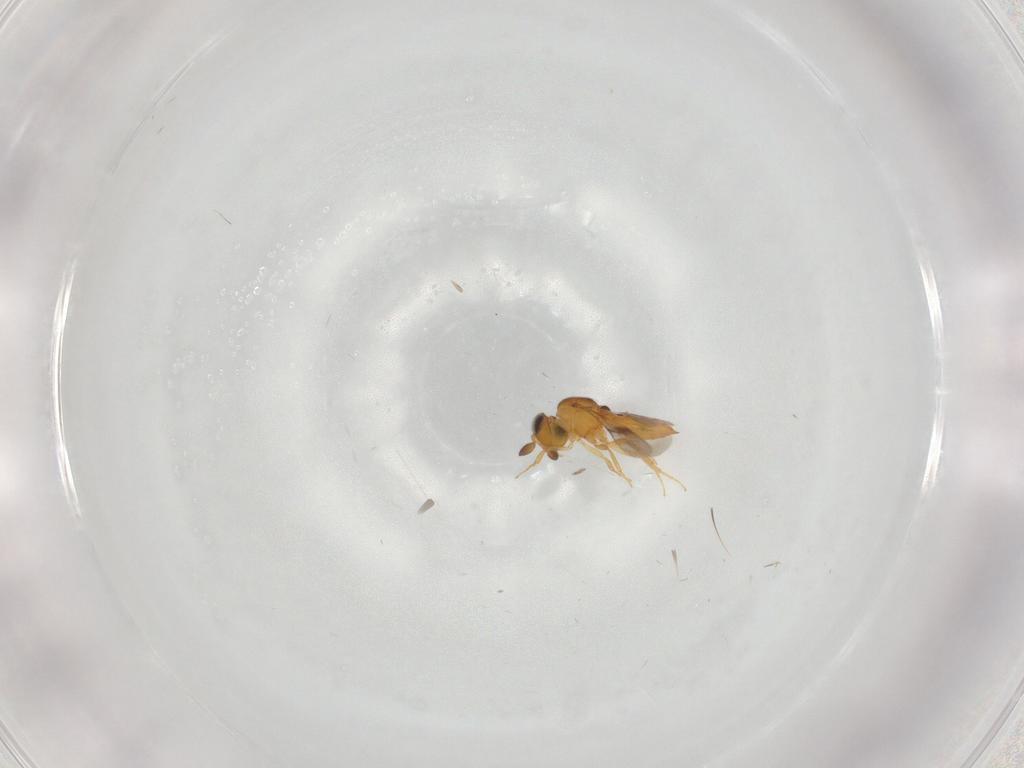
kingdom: Animalia
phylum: Arthropoda
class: Insecta
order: Hymenoptera
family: Scelionidae
